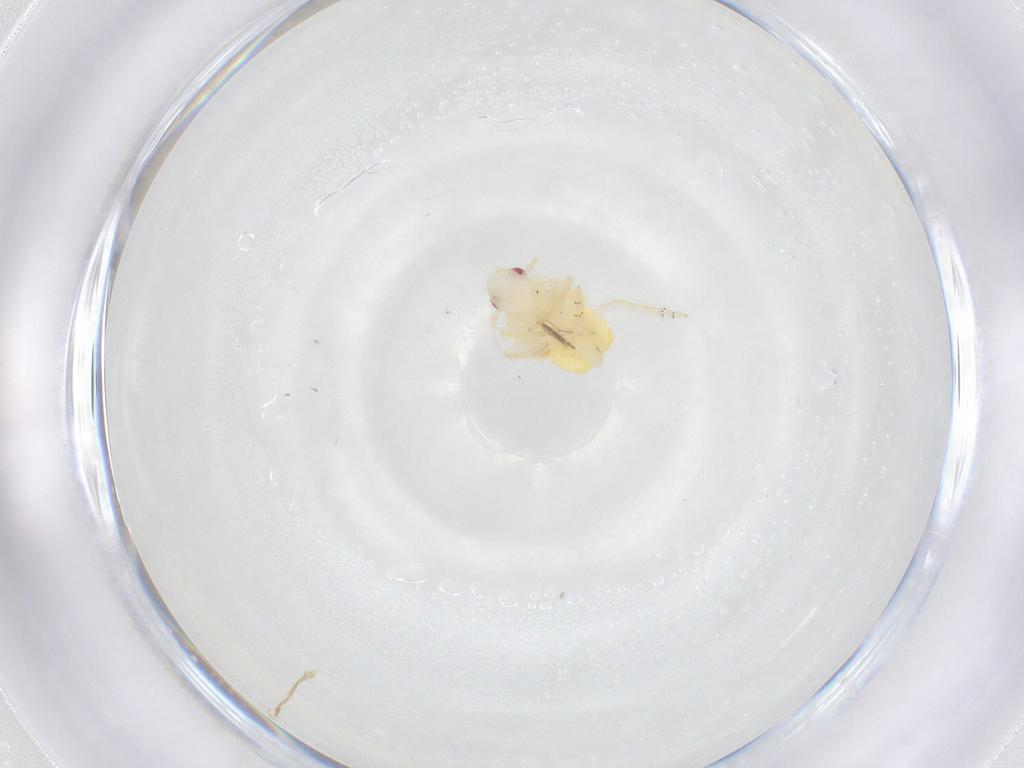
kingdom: Animalia
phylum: Arthropoda
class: Insecta
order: Hemiptera
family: Fulgoroidea_incertae_sedis
